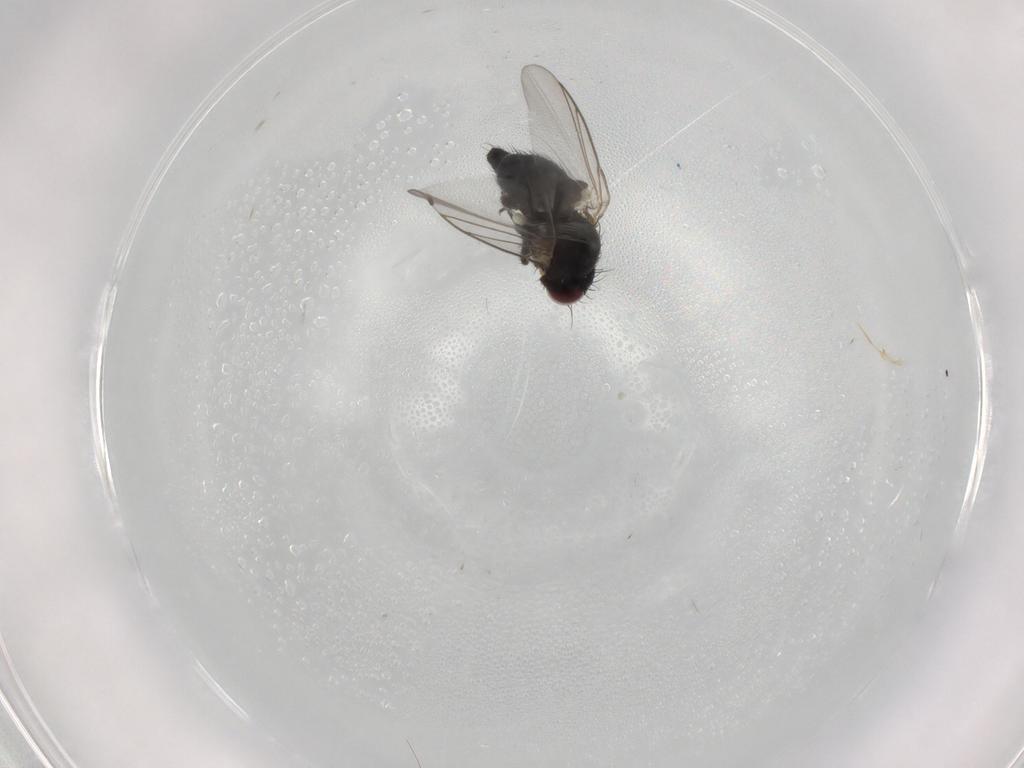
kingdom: Animalia
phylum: Arthropoda
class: Insecta
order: Diptera
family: Agromyzidae
